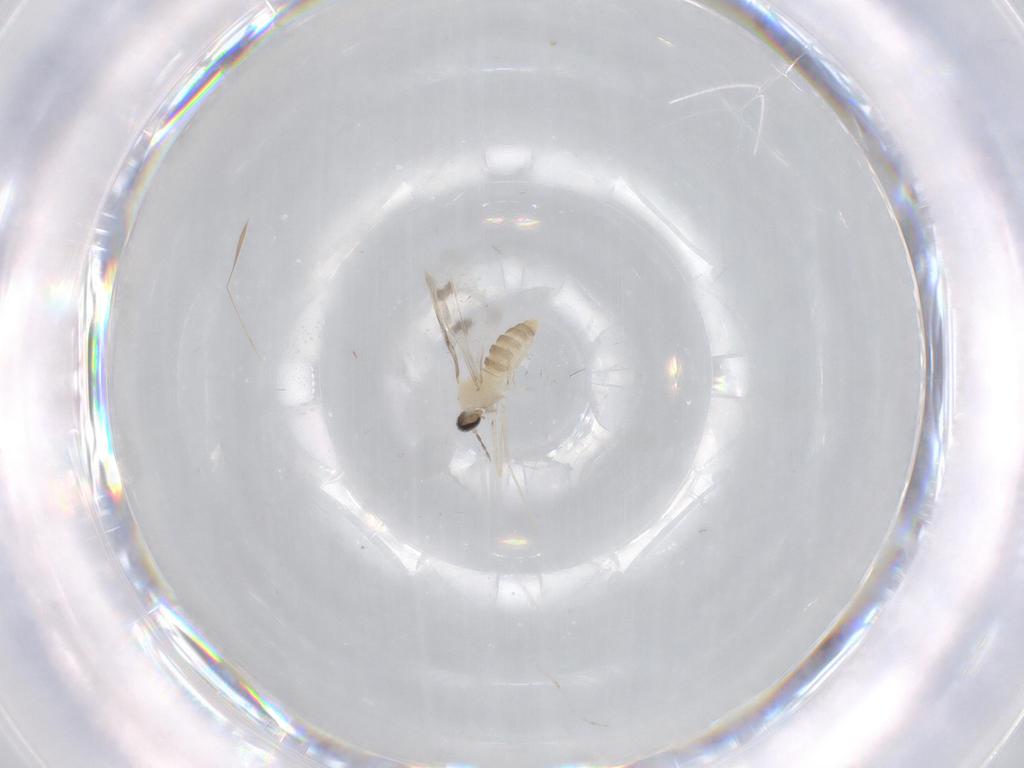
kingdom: Animalia
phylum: Arthropoda
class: Insecta
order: Diptera
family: Cecidomyiidae
